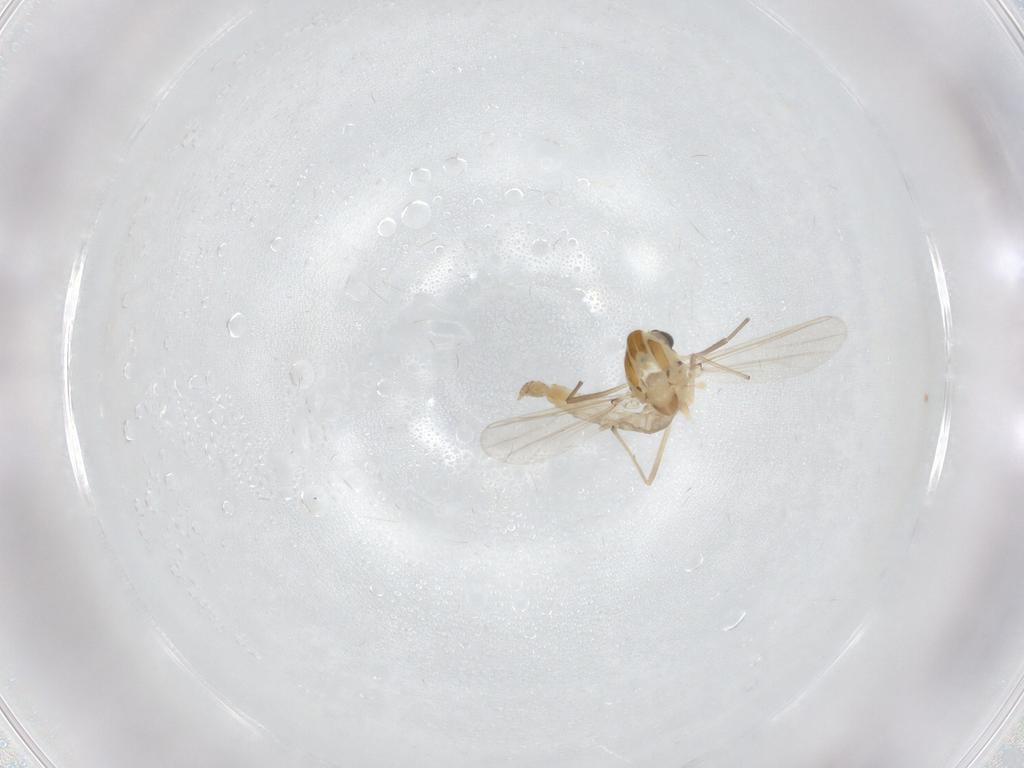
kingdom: Animalia
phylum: Arthropoda
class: Insecta
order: Diptera
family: Chironomidae
